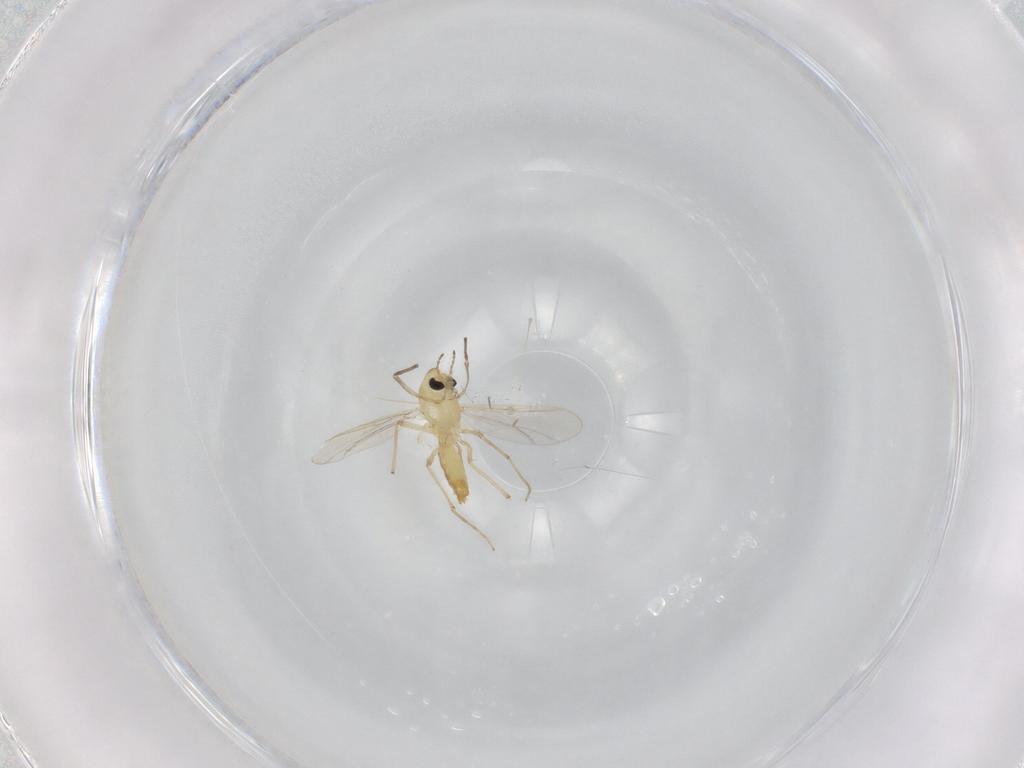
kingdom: Animalia
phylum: Arthropoda
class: Insecta
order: Diptera
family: Chironomidae
